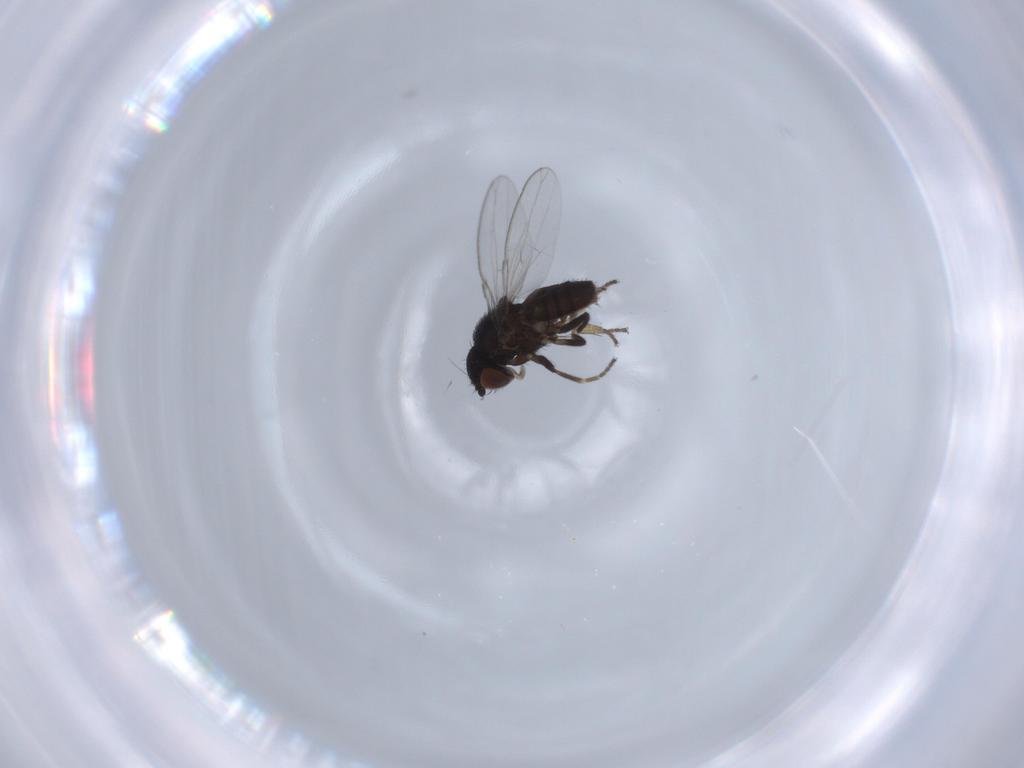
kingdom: Animalia
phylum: Arthropoda
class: Insecta
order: Diptera
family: Milichiidae
